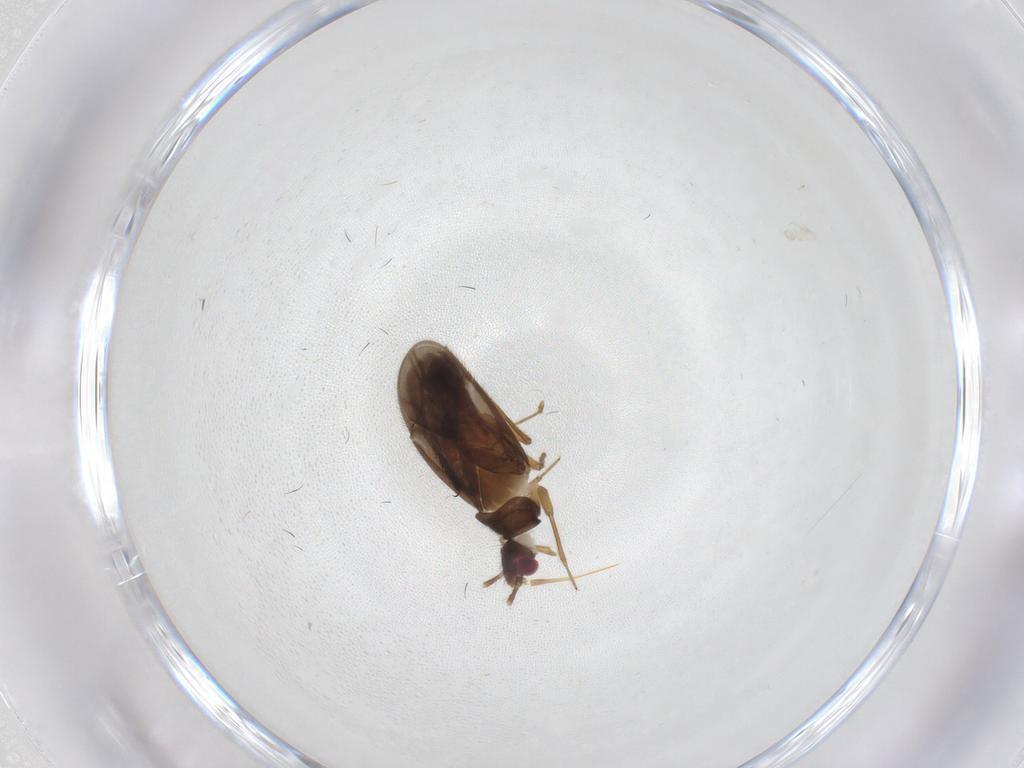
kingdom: Animalia
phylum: Arthropoda
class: Insecta
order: Hemiptera
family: Ceratocombidae
